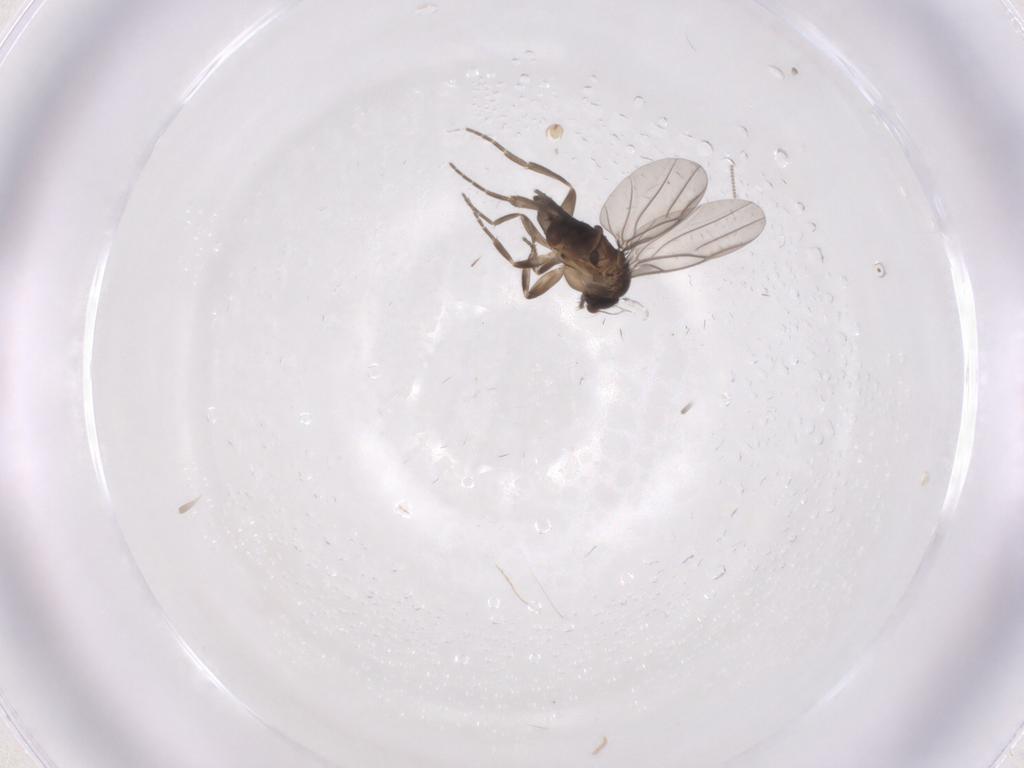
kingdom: Animalia
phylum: Arthropoda
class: Insecta
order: Diptera
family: Phoridae
